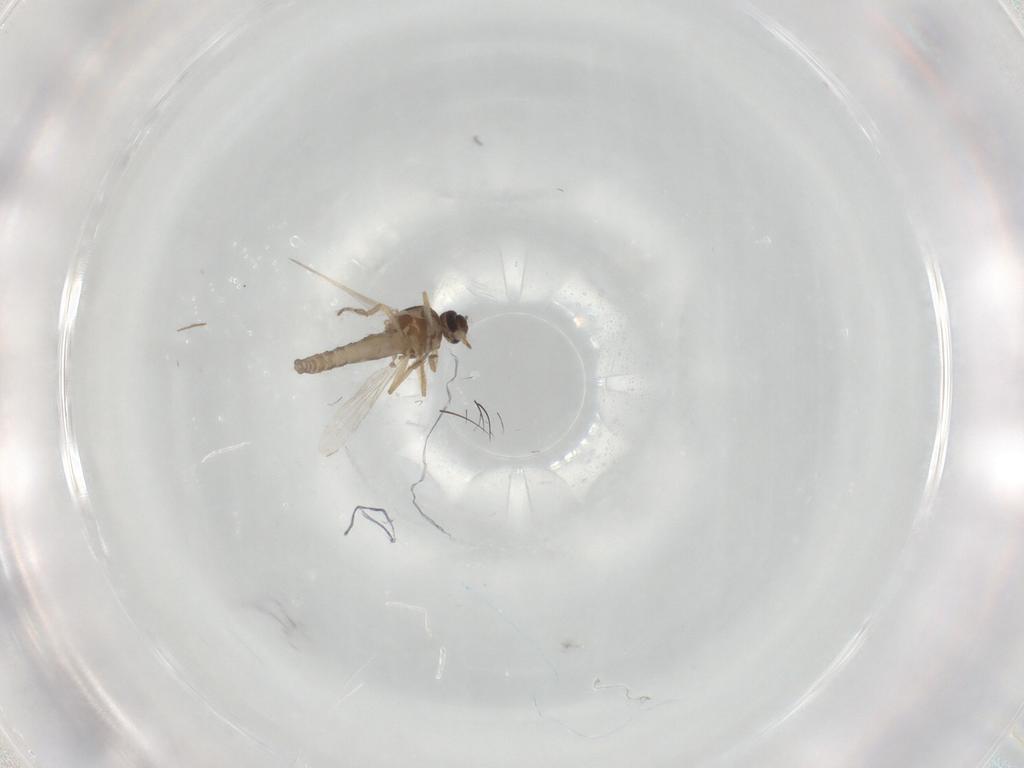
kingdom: Animalia
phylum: Arthropoda
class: Insecta
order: Diptera
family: Ceratopogonidae
